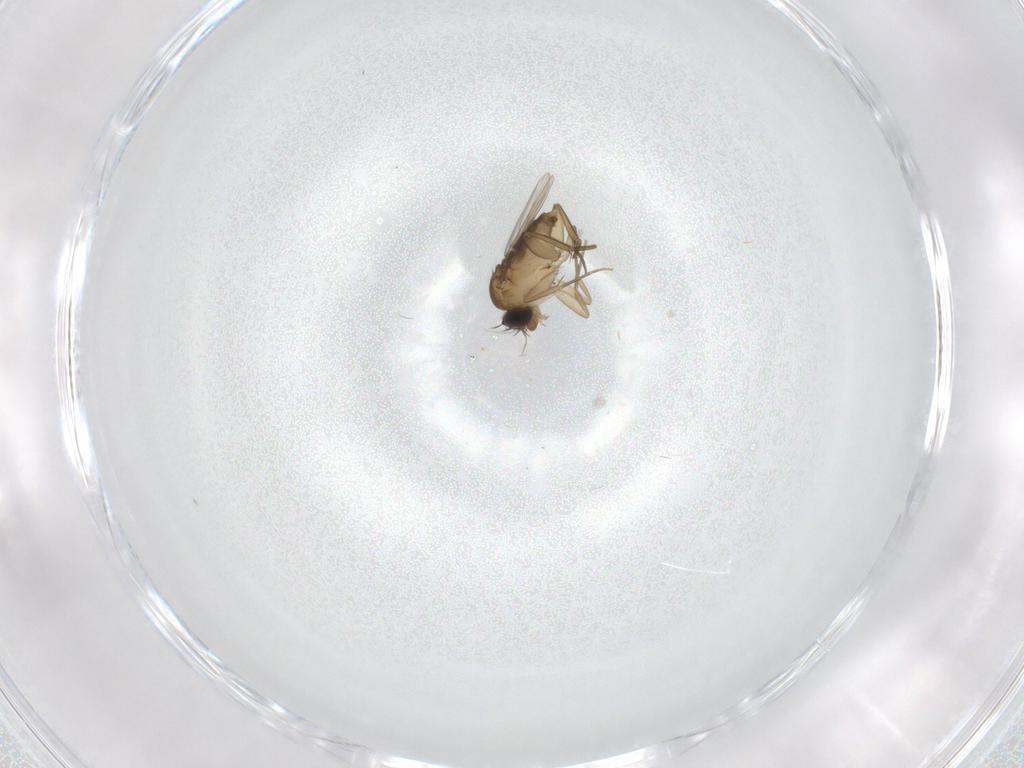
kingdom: Animalia
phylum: Arthropoda
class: Insecta
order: Diptera
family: Phoridae
